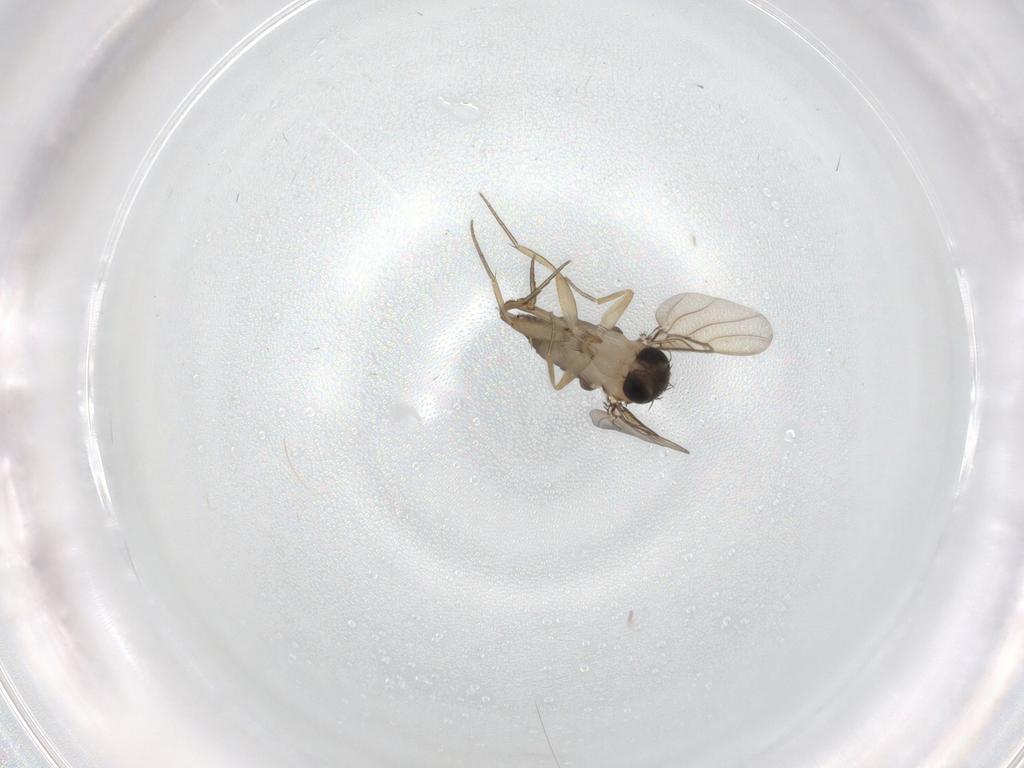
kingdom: Animalia
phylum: Arthropoda
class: Insecta
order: Diptera
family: Phoridae
